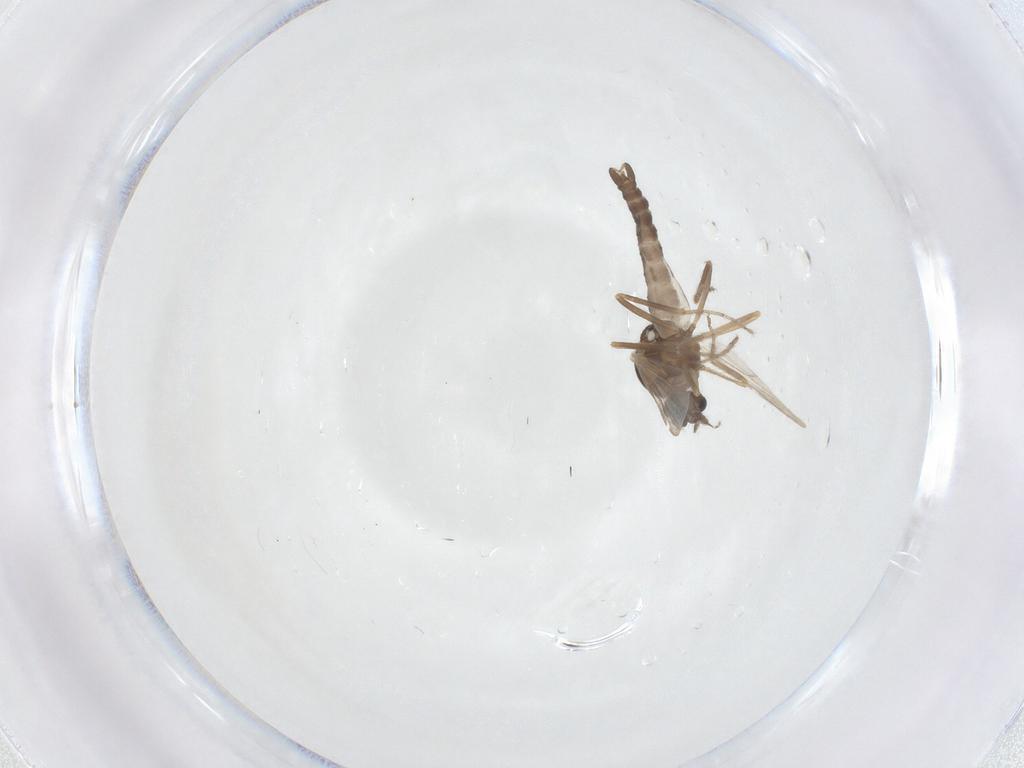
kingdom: Animalia
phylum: Arthropoda
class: Insecta
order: Diptera
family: Ceratopogonidae
